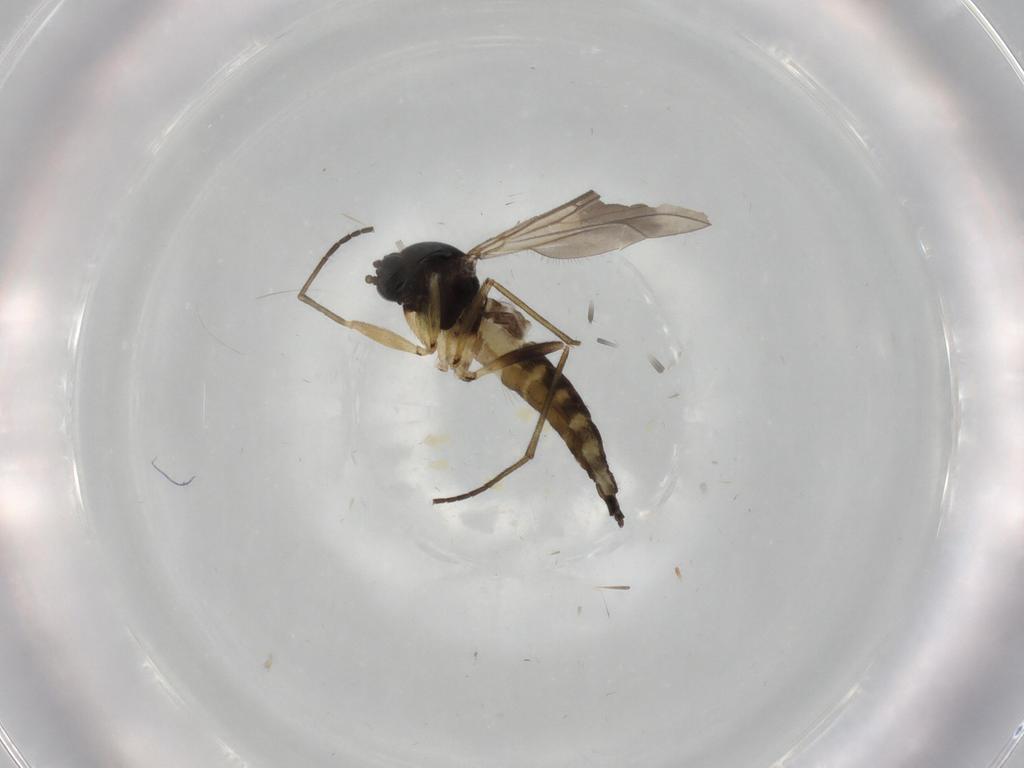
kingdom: Animalia
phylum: Arthropoda
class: Insecta
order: Diptera
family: Sciaridae
